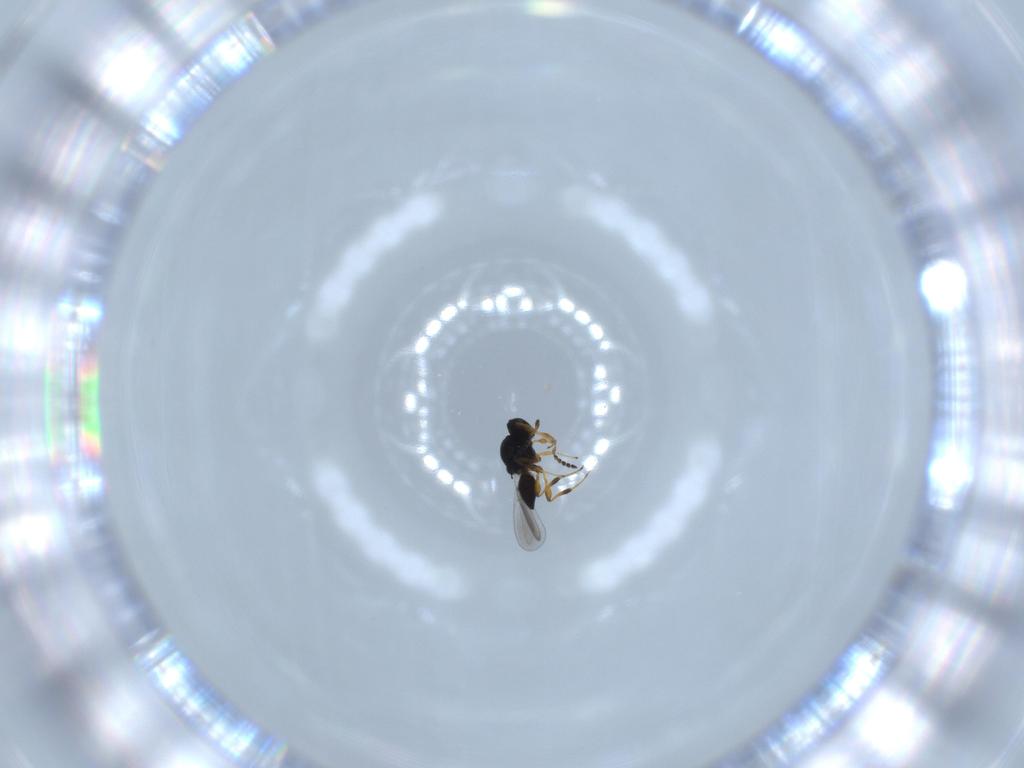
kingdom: Animalia
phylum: Arthropoda
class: Insecta
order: Hymenoptera
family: Platygastridae
